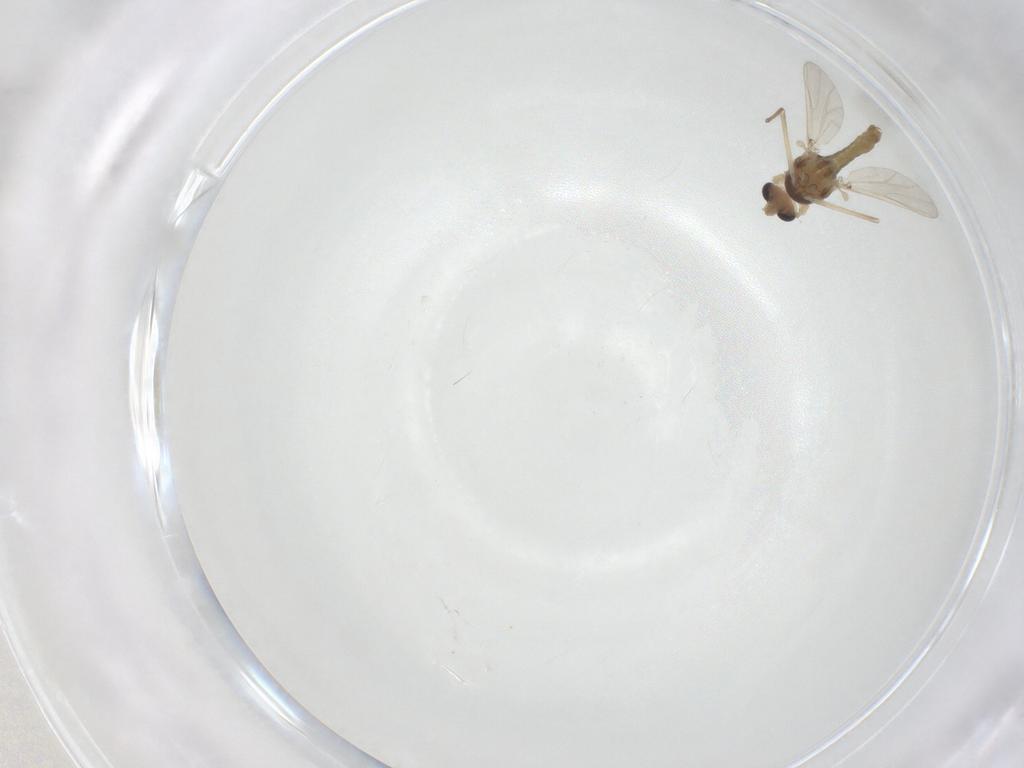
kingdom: Animalia
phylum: Arthropoda
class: Insecta
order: Diptera
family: Chironomidae
